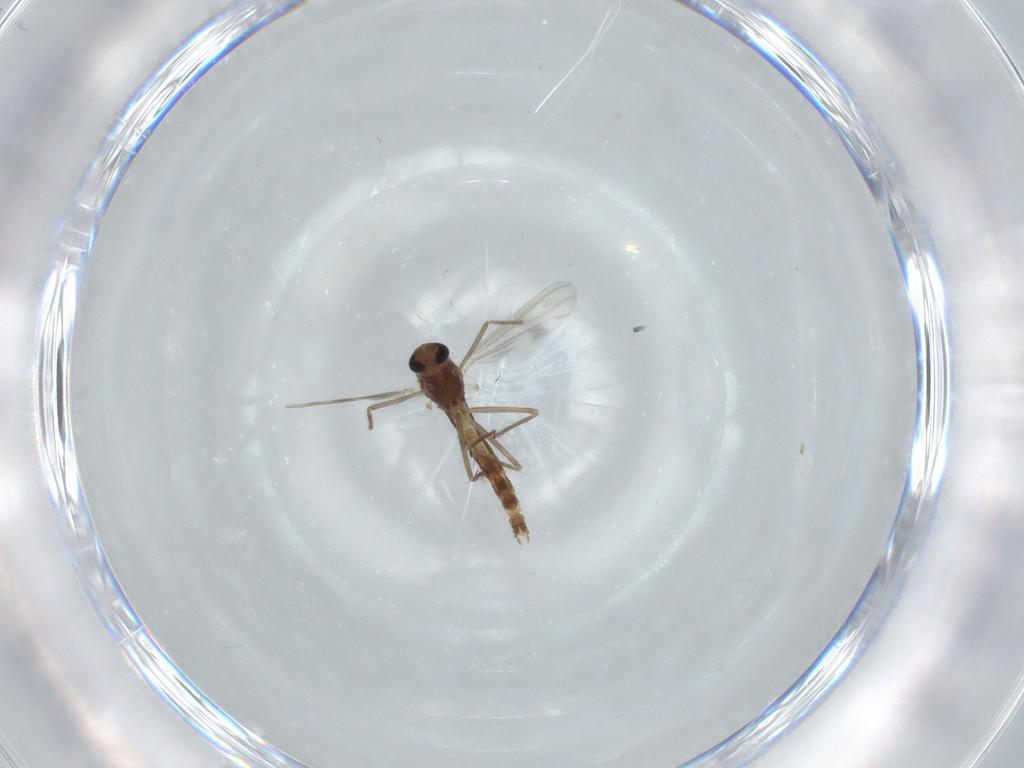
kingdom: Animalia
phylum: Arthropoda
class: Insecta
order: Diptera
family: Chironomidae
